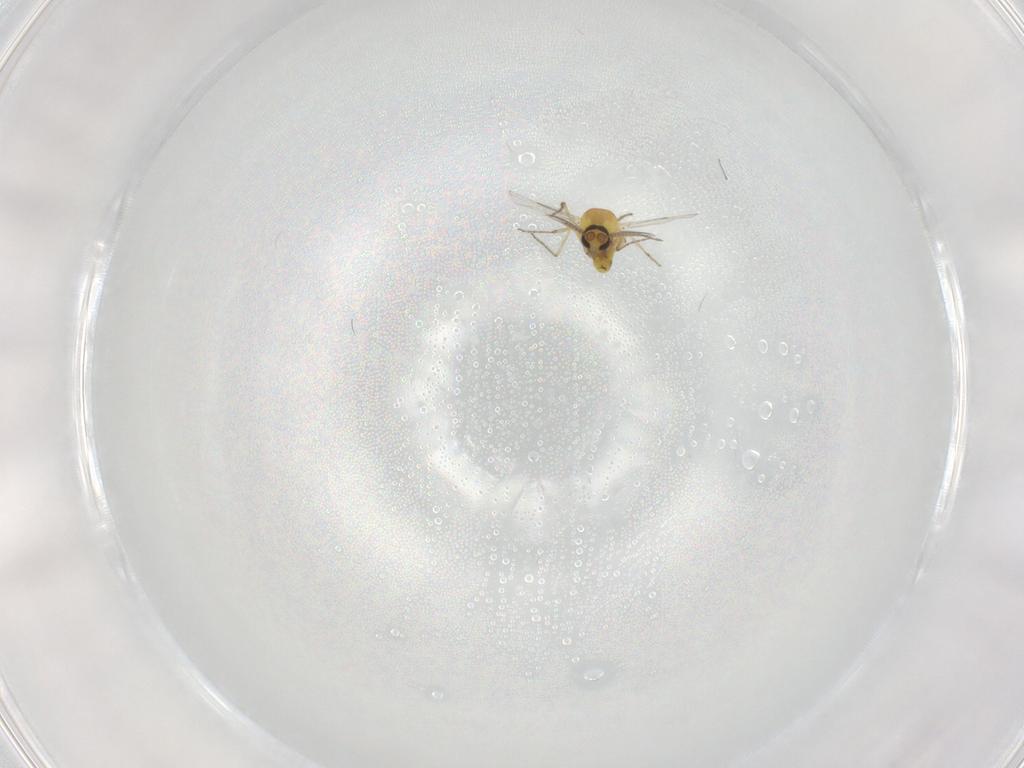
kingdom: Animalia
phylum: Arthropoda
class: Insecta
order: Diptera
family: Ceratopogonidae
